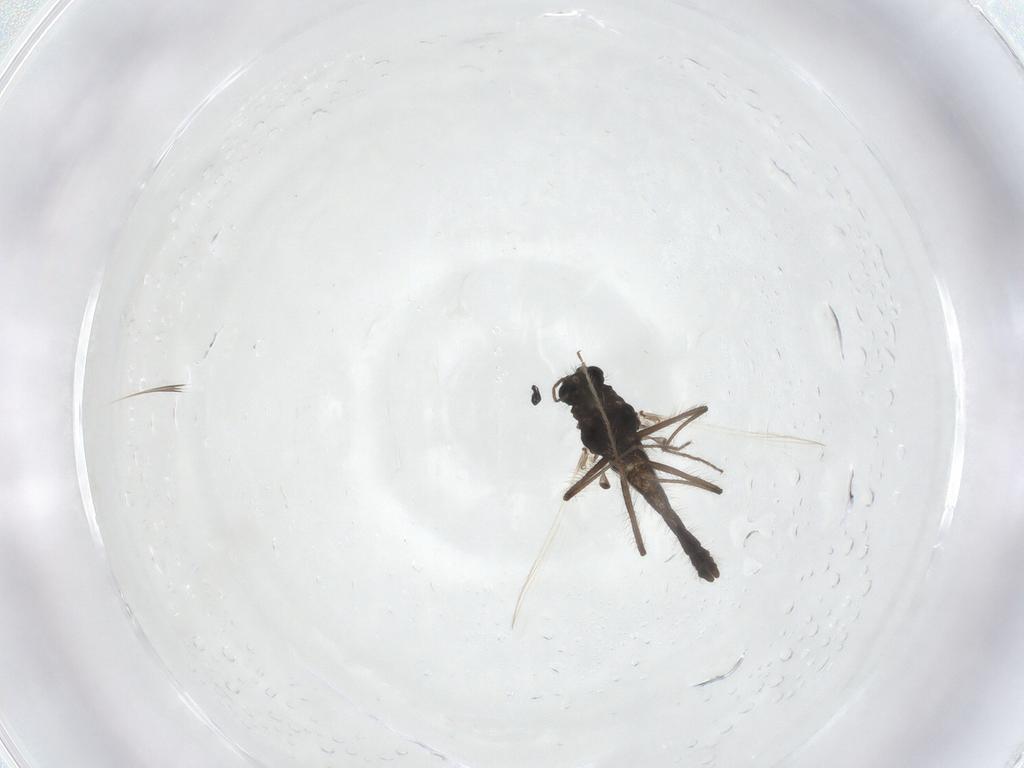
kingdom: Animalia
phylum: Arthropoda
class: Insecta
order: Diptera
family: Chironomidae
